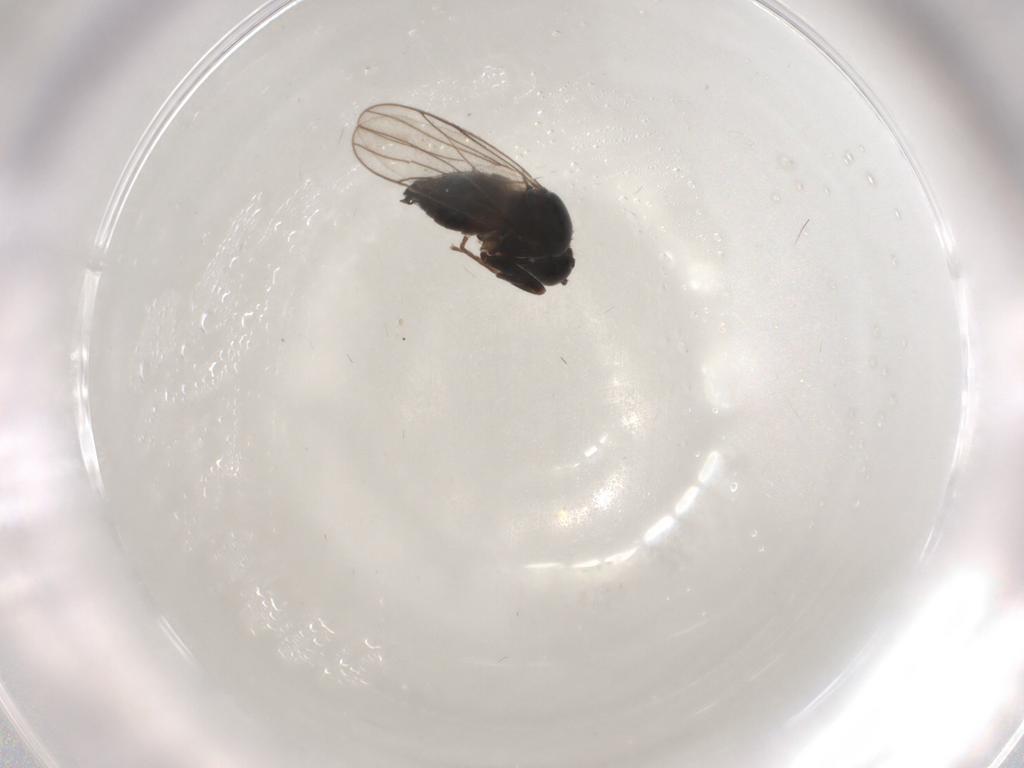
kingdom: Animalia
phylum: Arthropoda
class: Insecta
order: Diptera
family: Hybotidae
